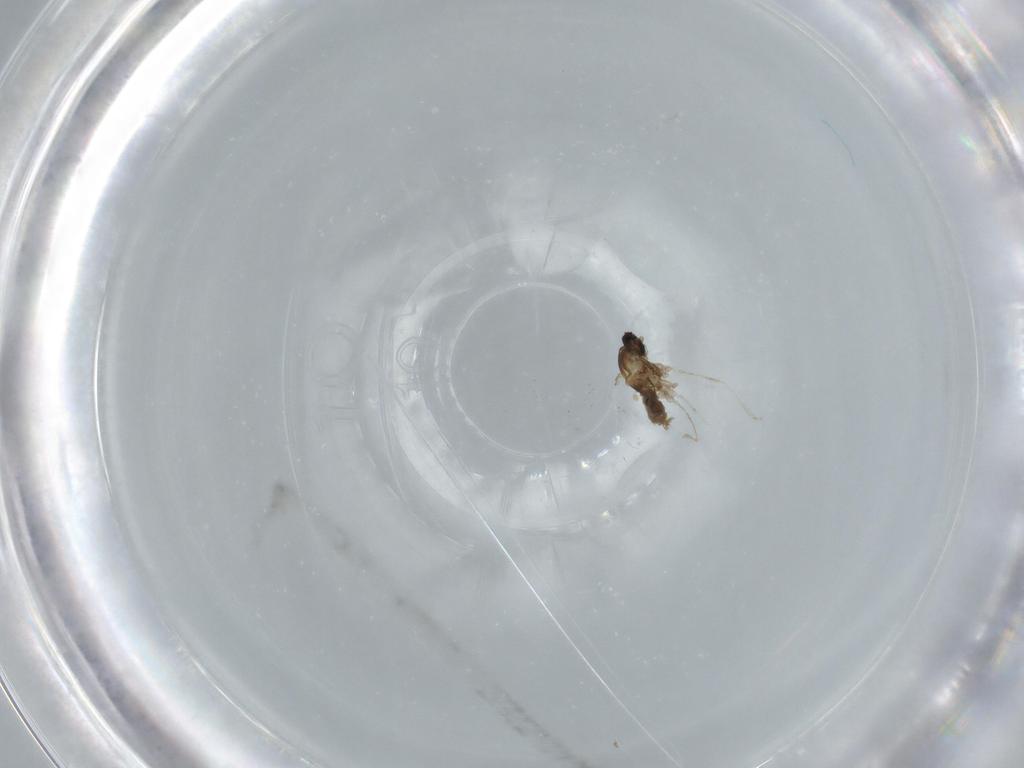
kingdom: Animalia
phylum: Arthropoda
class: Insecta
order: Diptera
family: Cecidomyiidae
